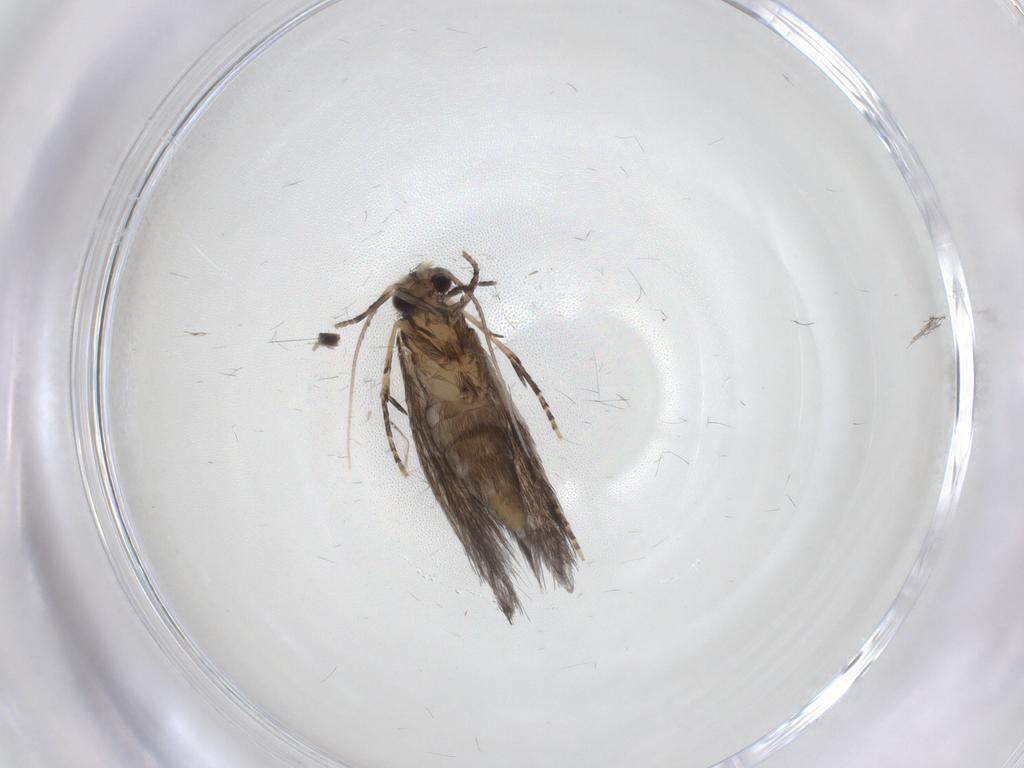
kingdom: Animalia
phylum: Arthropoda
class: Insecta
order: Trichoptera
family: Hydroptilidae
